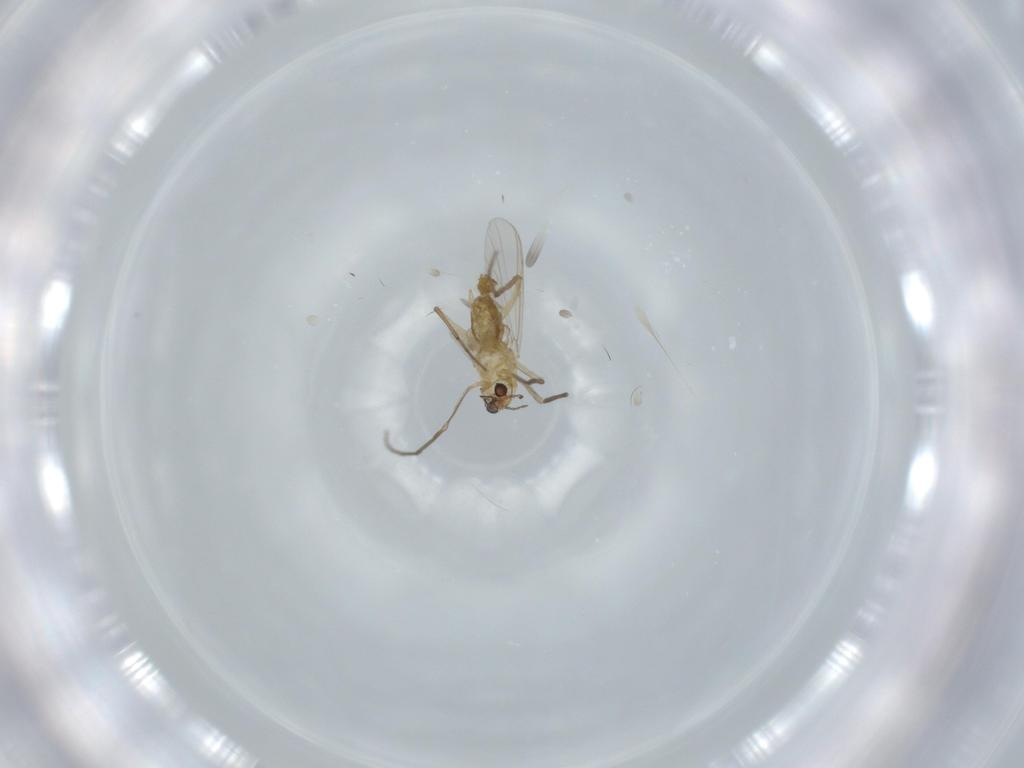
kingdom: Animalia
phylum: Arthropoda
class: Insecta
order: Diptera
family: Chironomidae
